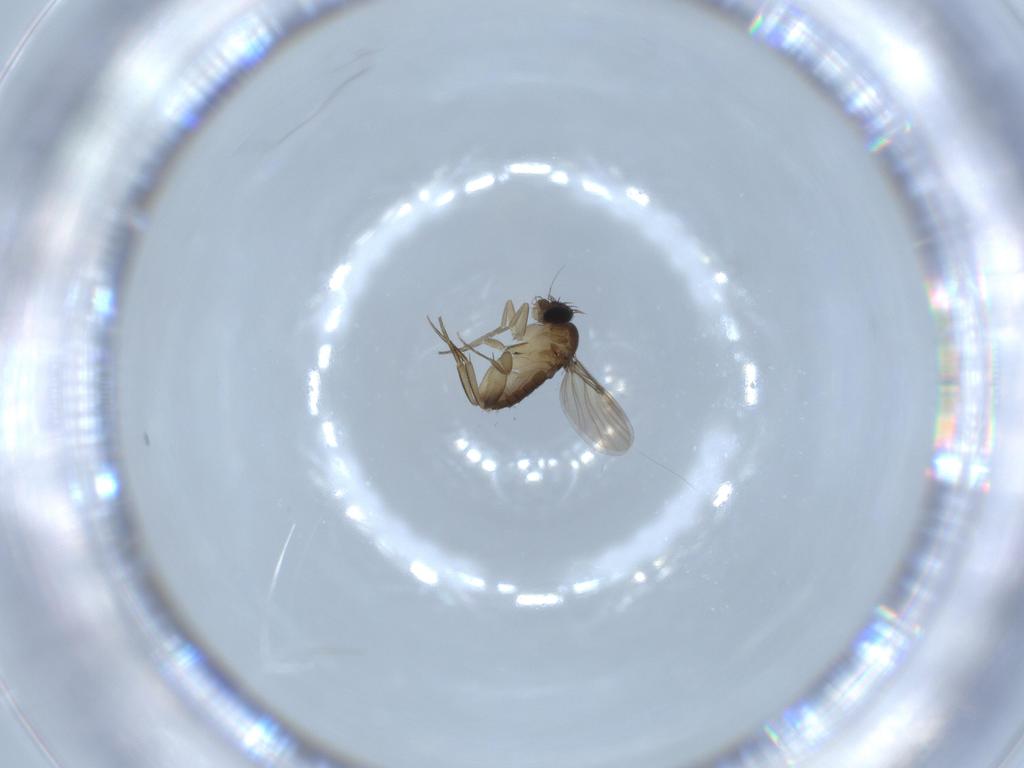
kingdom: Animalia
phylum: Arthropoda
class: Insecta
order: Diptera
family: Phoridae
